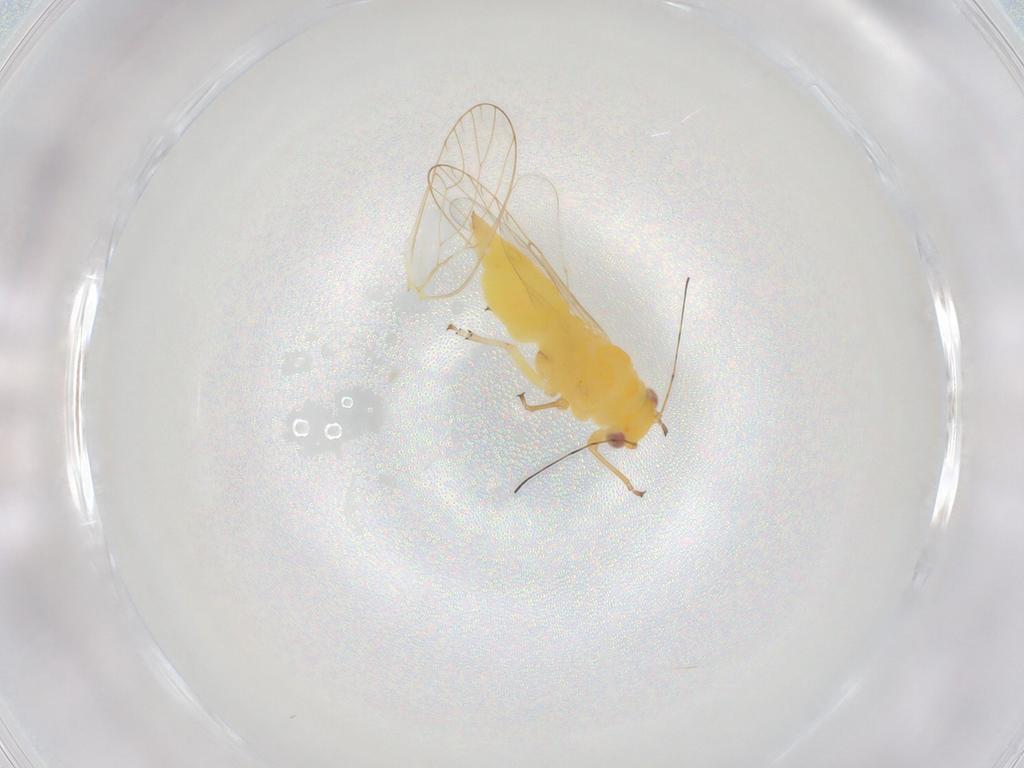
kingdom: Animalia
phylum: Arthropoda
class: Insecta
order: Hemiptera
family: Psyllidae
